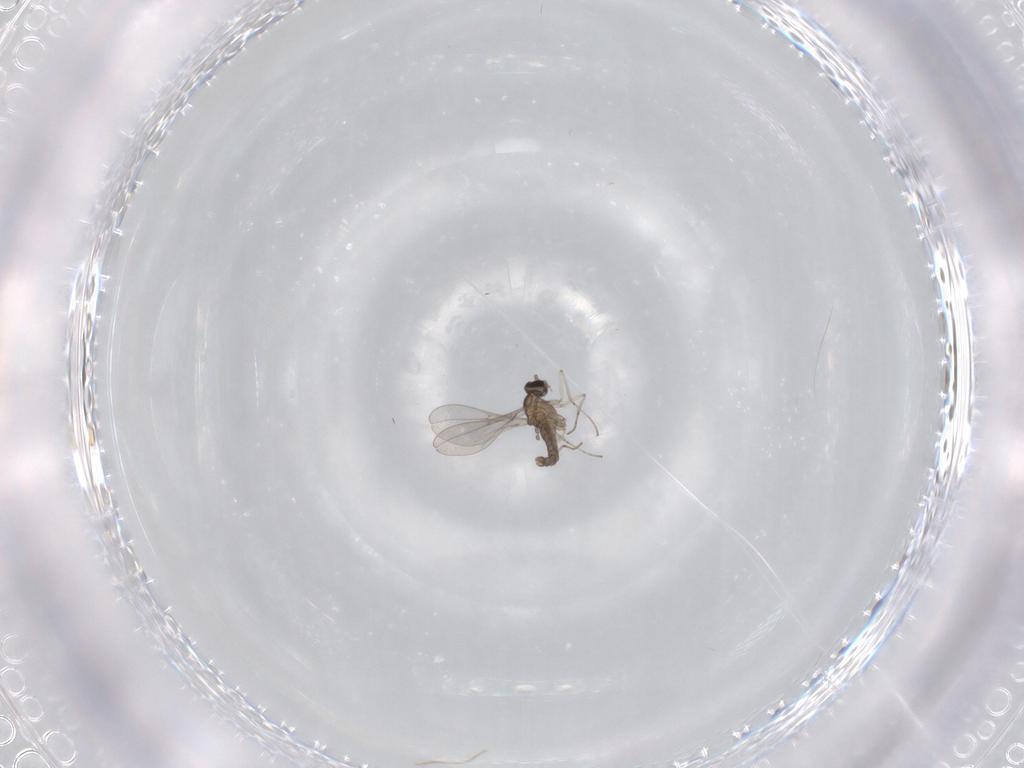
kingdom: Animalia
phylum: Arthropoda
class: Insecta
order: Diptera
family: Cecidomyiidae
